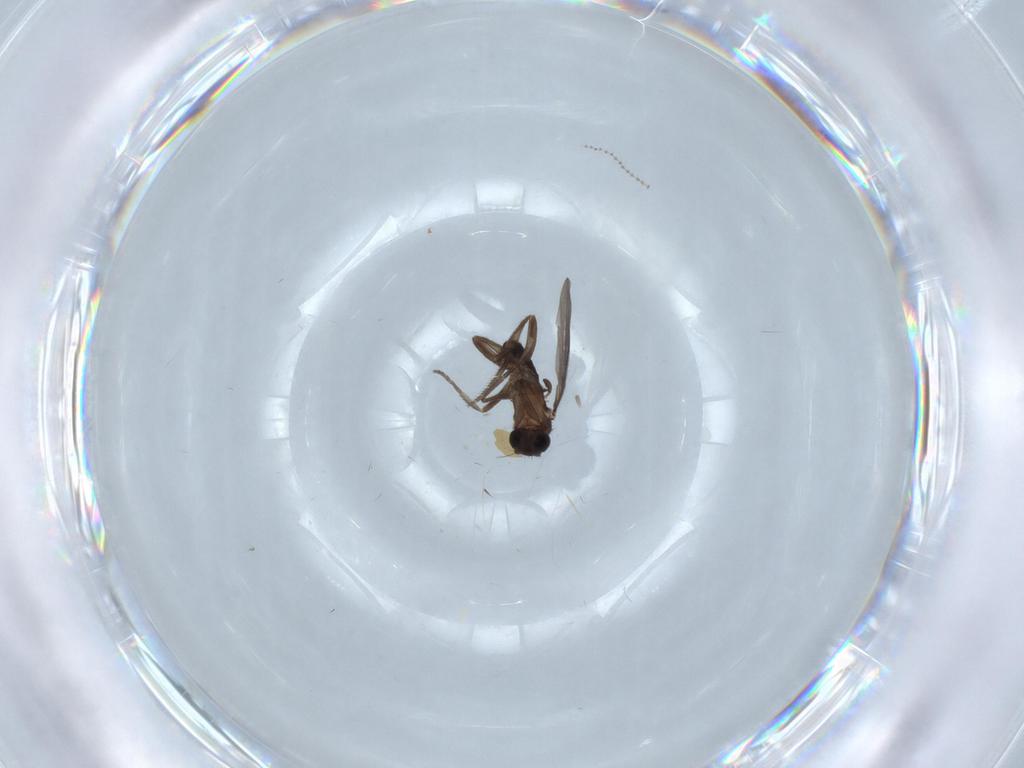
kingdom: Animalia
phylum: Arthropoda
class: Insecta
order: Diptera
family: Phoridae
